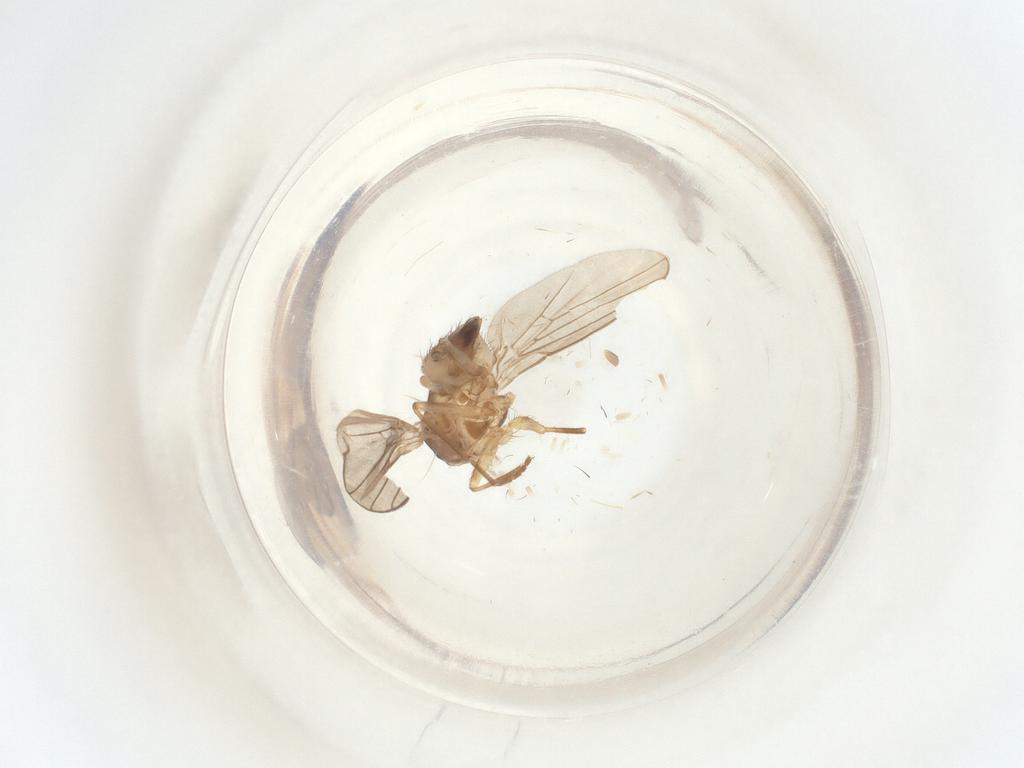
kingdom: Animalia
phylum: Arthropoda
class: Insecta
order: Diptera
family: Agromyzidae
